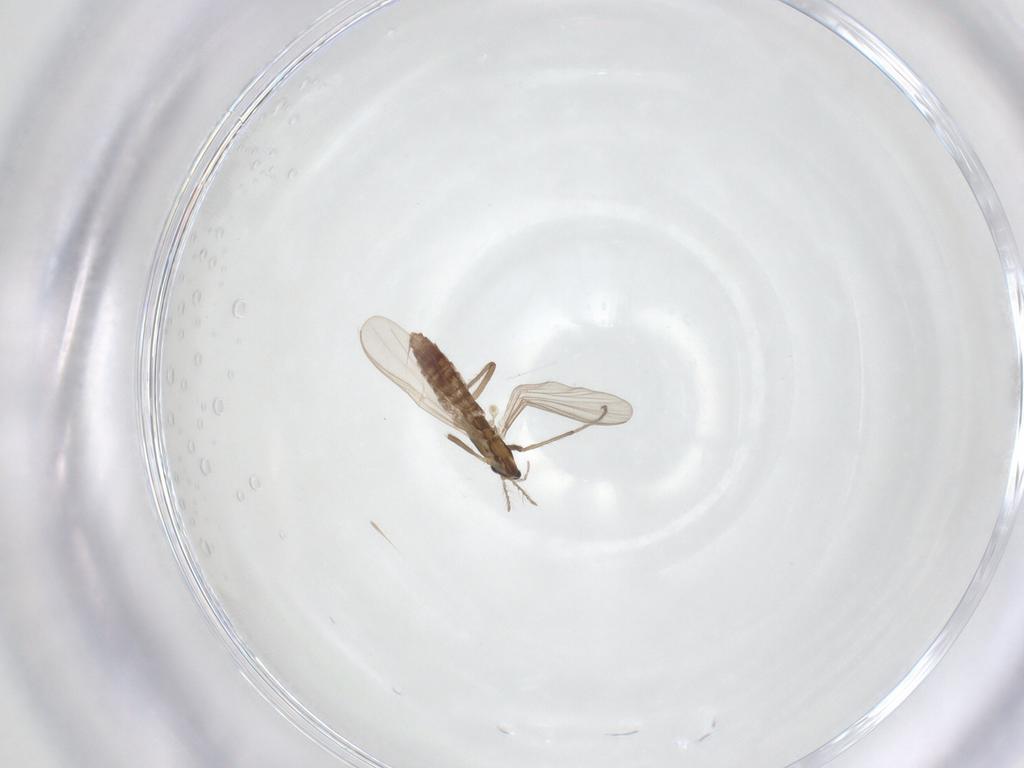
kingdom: Animalia
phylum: Arthropoda
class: Insecta
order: Diptera
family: Chironomidae
